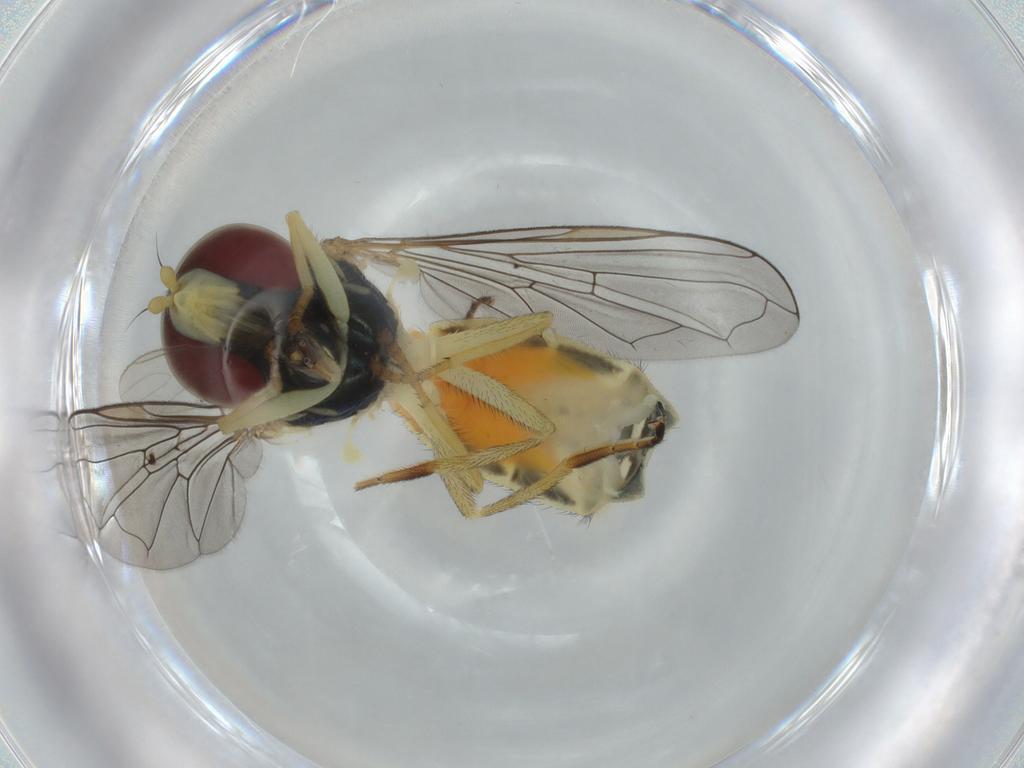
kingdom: Animalia
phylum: Arthropoda
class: Insecta
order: Diptera
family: Syrphidae
